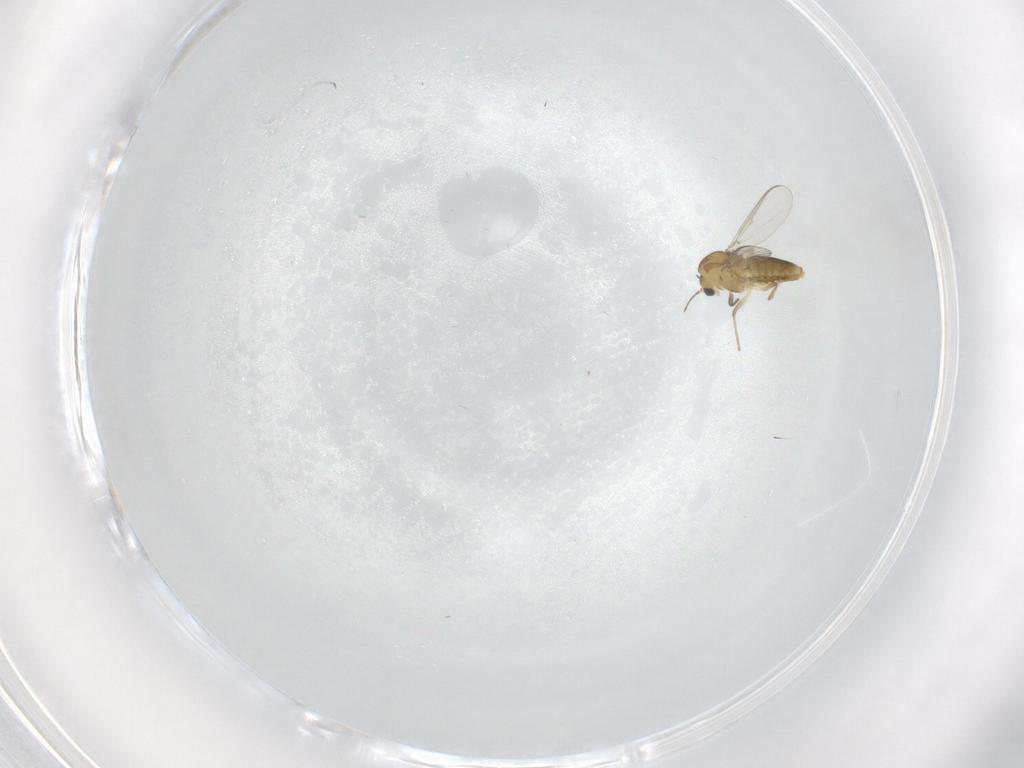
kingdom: Animalia
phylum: Arthropoda
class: Insecta
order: Diptera
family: Chironomidae
